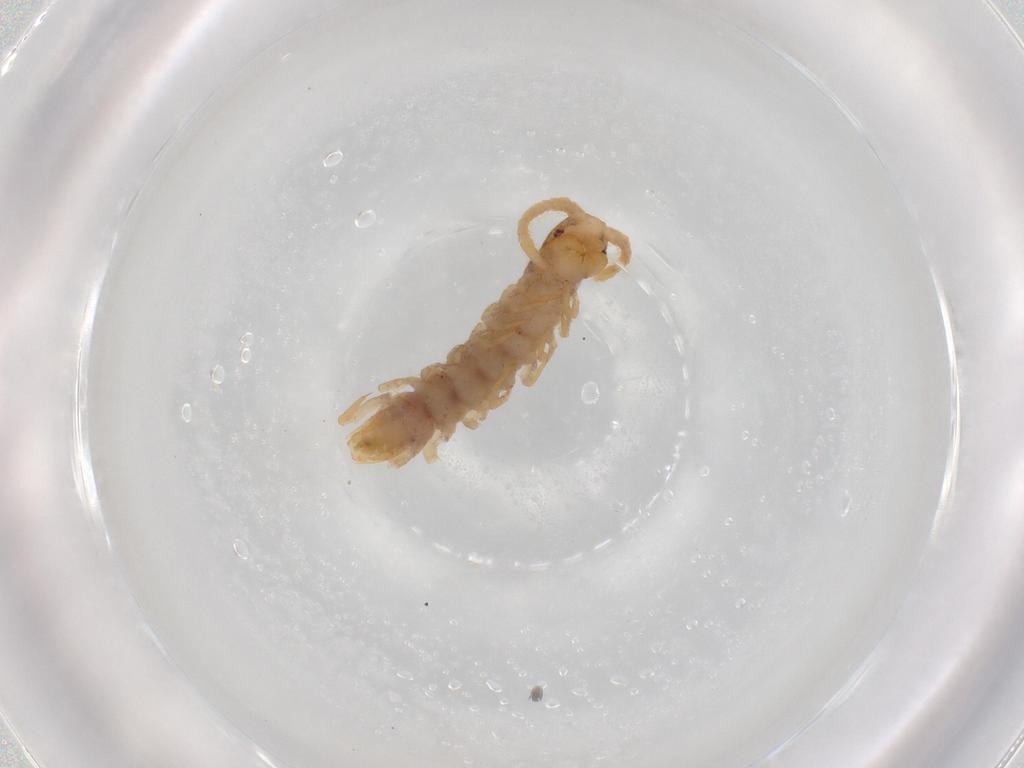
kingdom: Animalia
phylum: Arthropoda
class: Chilopoda
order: Lithobiomorpha
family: Lithobiidae
